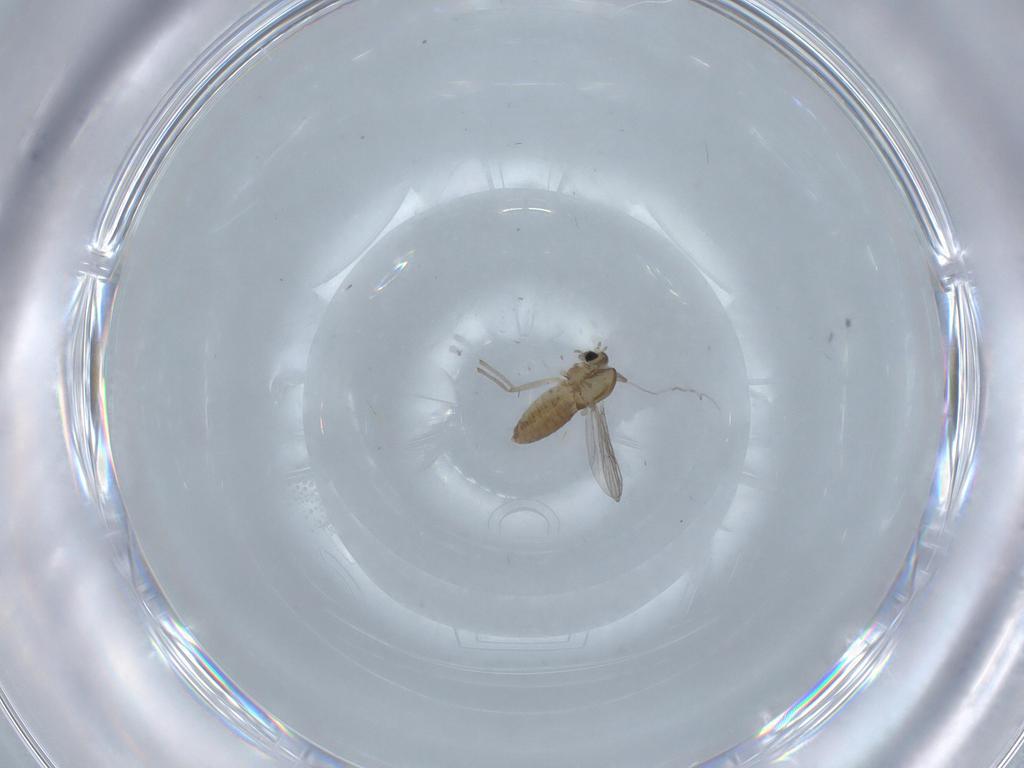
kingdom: Animalia
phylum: Arthropoda
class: Insecta
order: Diptera
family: Chironomidae
